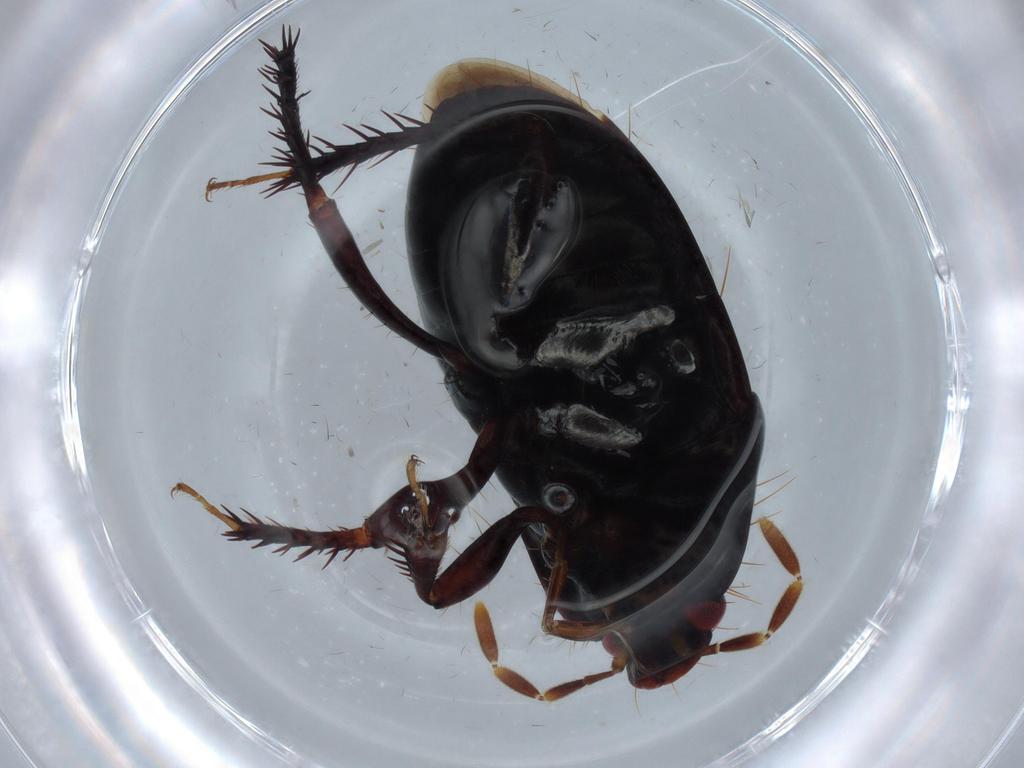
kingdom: Animalia
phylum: Arthropoda
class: Insecta
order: Hemiptera
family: Cydnidae
